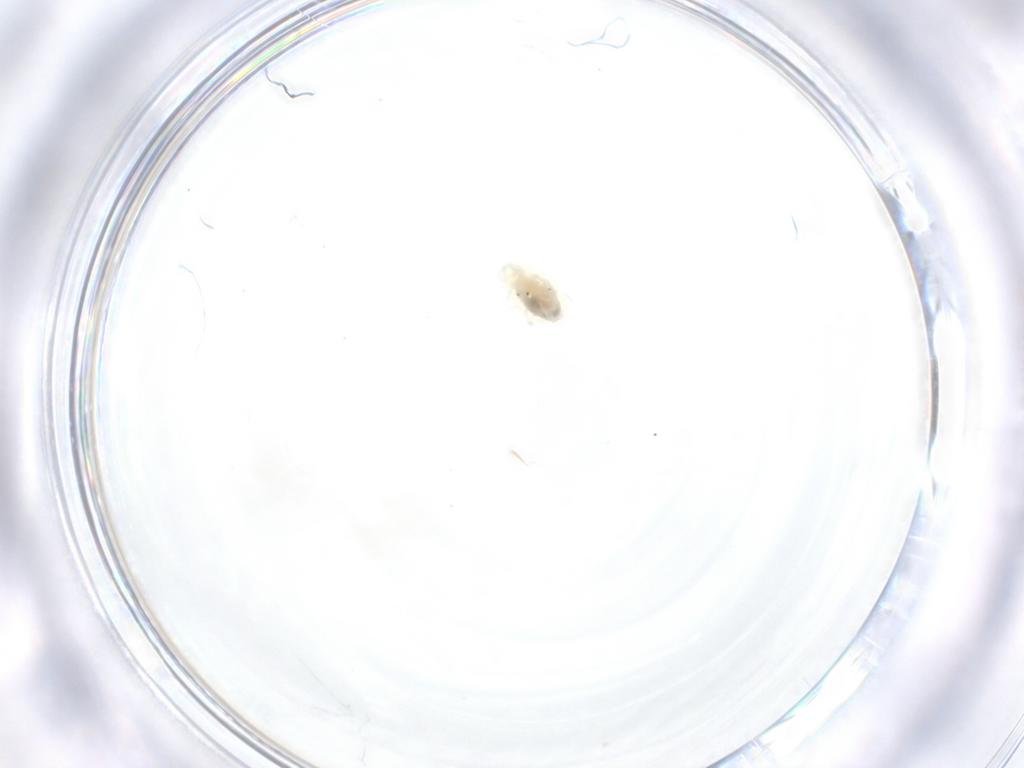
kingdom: Animalia
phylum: Arthropoda
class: Arachnida
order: Trombidiformes
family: Anystidae
